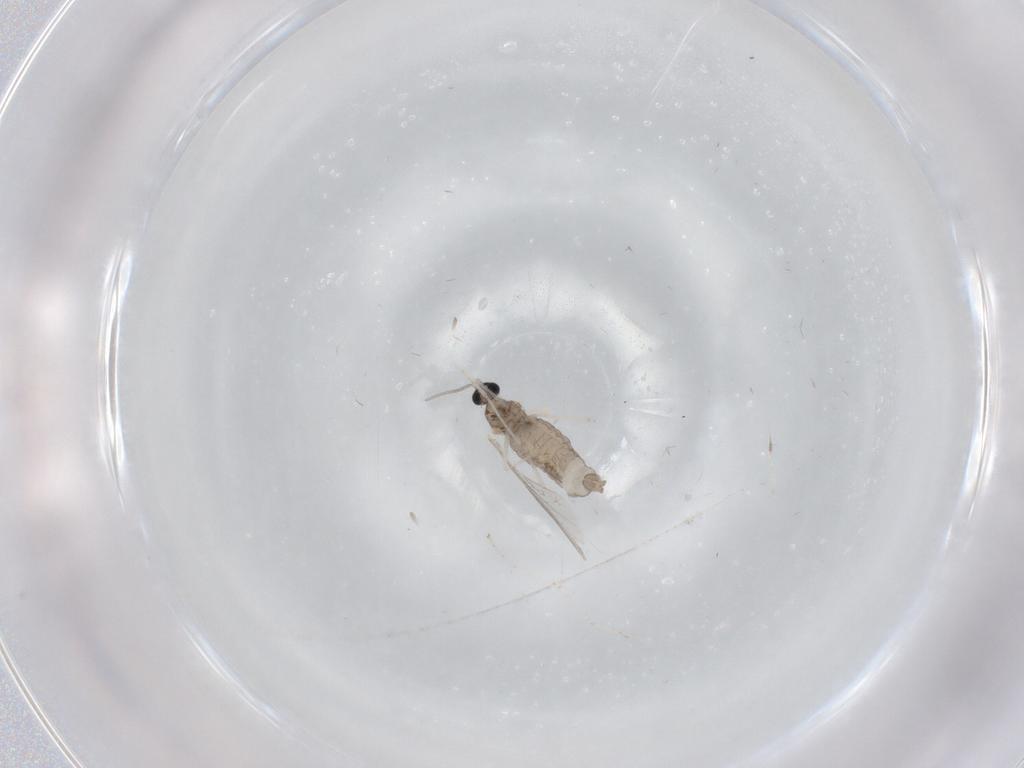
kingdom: Animalia
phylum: Arthropoda
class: Insecta
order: Diptera
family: Cecidomyiidae
